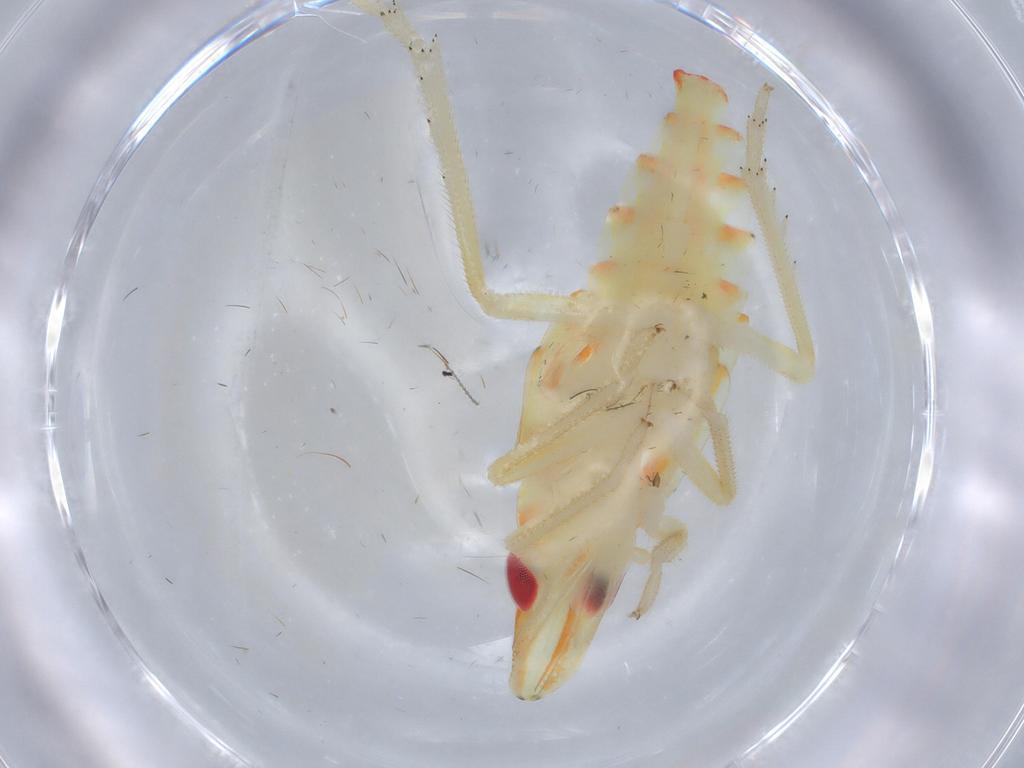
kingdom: Animalia
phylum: Arthropoda
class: Insecta
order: Hemiptera
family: Tropiduchidae
